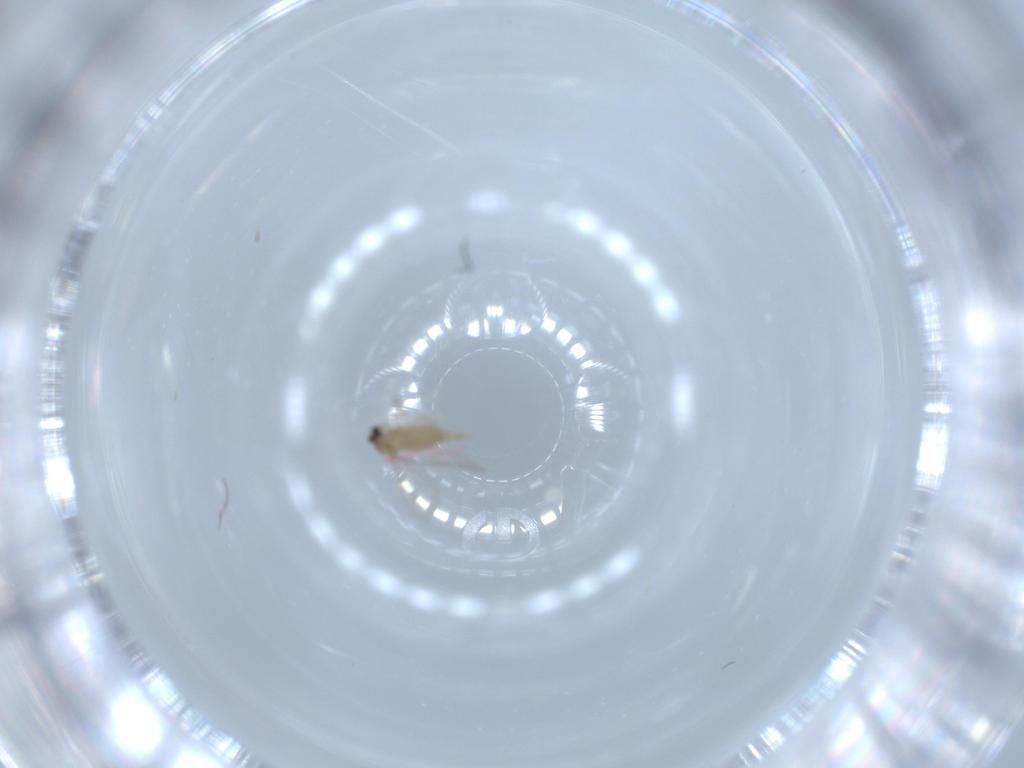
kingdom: Animalia
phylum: Arthropoda
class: Insecta
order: Diptera
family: Cecidomyiidae
